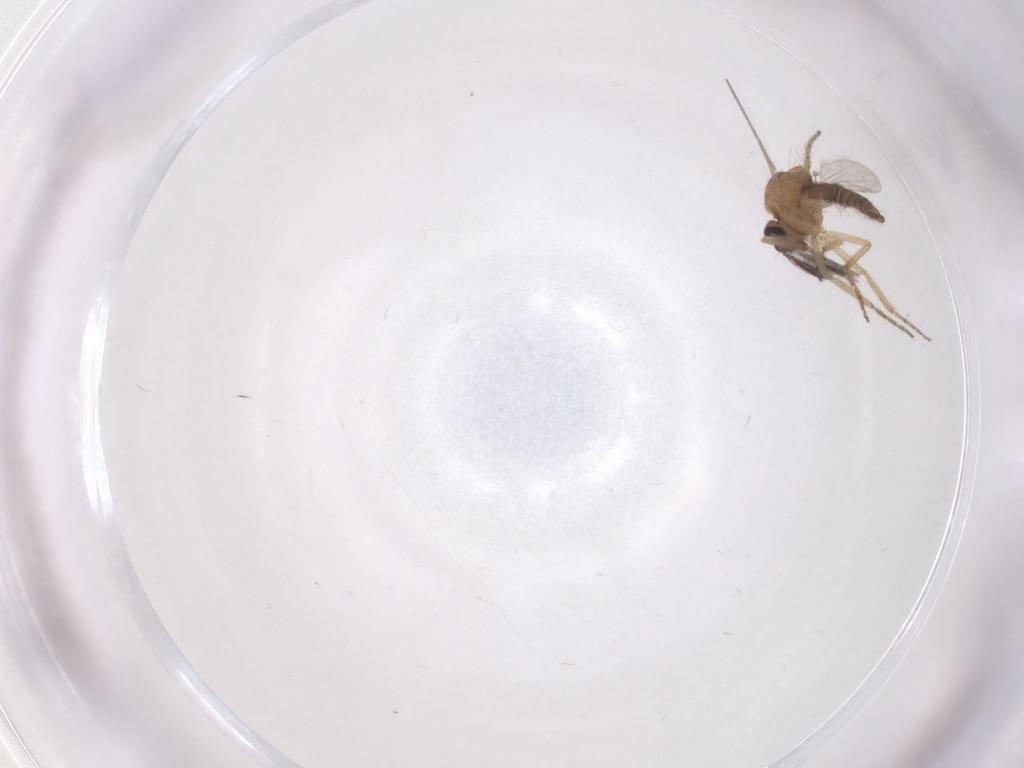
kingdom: Animalia
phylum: Arthropoda
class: Insecta
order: Diptera
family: Ceratopogonidae
